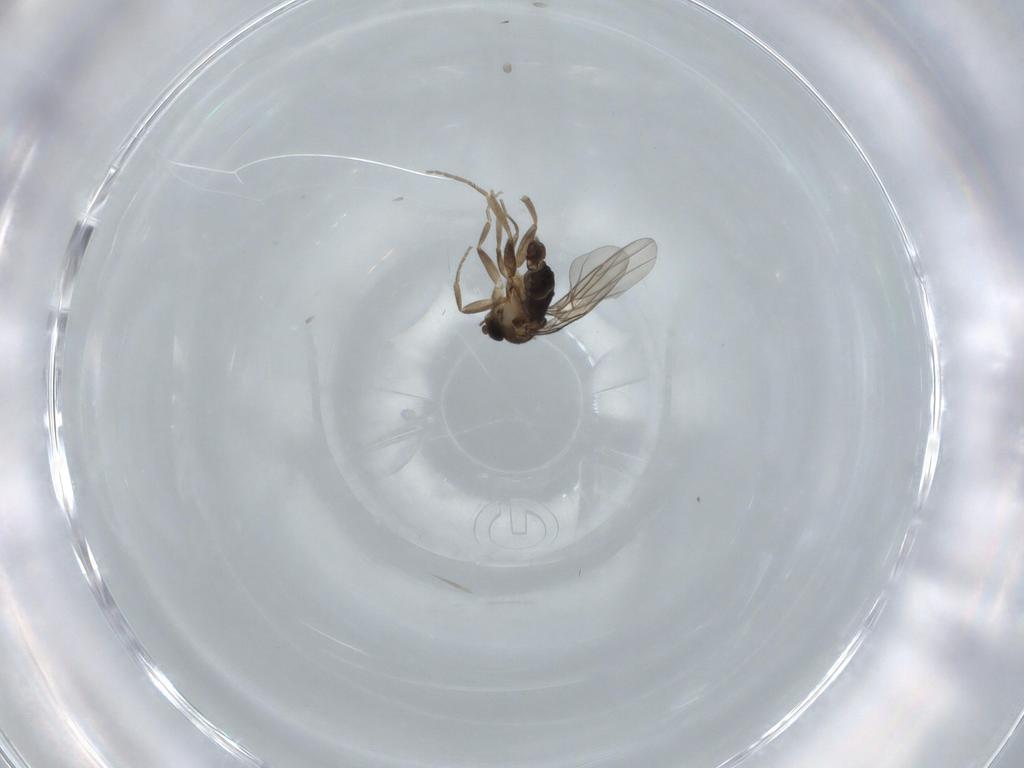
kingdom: Animalia
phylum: Arthropoda
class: Insecta
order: Diptera
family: Phoridae
